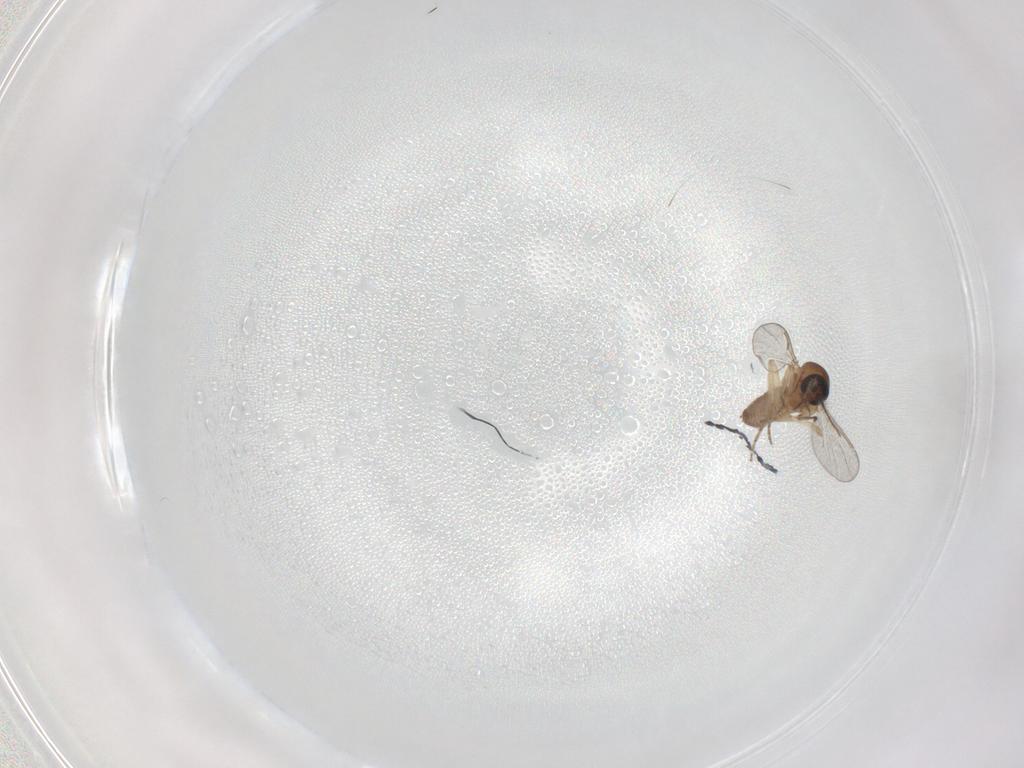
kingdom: Animalia
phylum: Arthropoda
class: Insecta
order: Diptera
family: Ceratopogonidae
